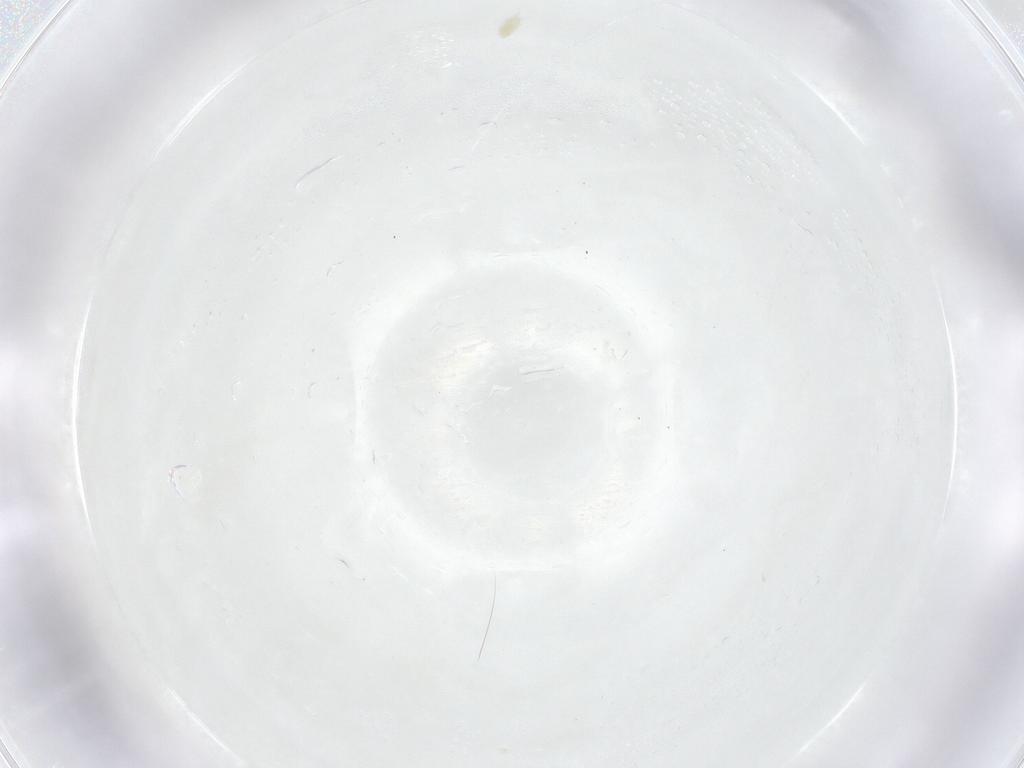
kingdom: Animalia
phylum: Arthropoda
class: Arachnida
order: Trombidiformes
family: Eupodidae
